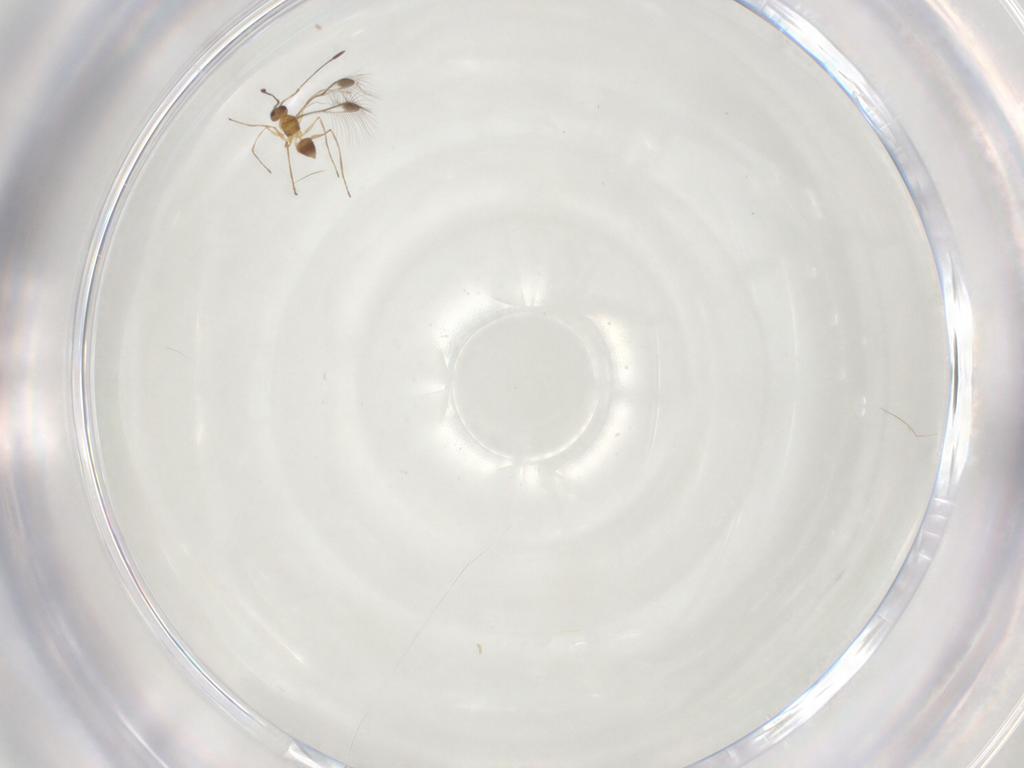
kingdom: Animalia
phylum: Arthropoda
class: Insecta
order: Hymenoptera
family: Mymaridae
